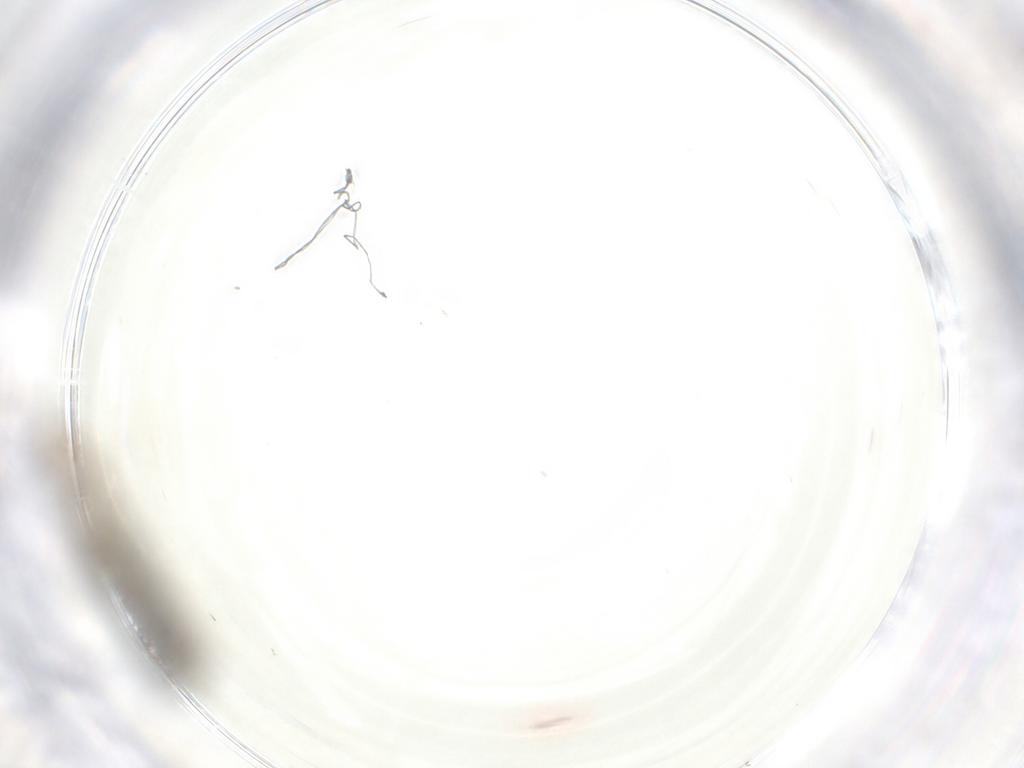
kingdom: Animalia
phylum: Arthropoda
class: Collembola
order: Entomobryomorpha
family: Entomobryidae
